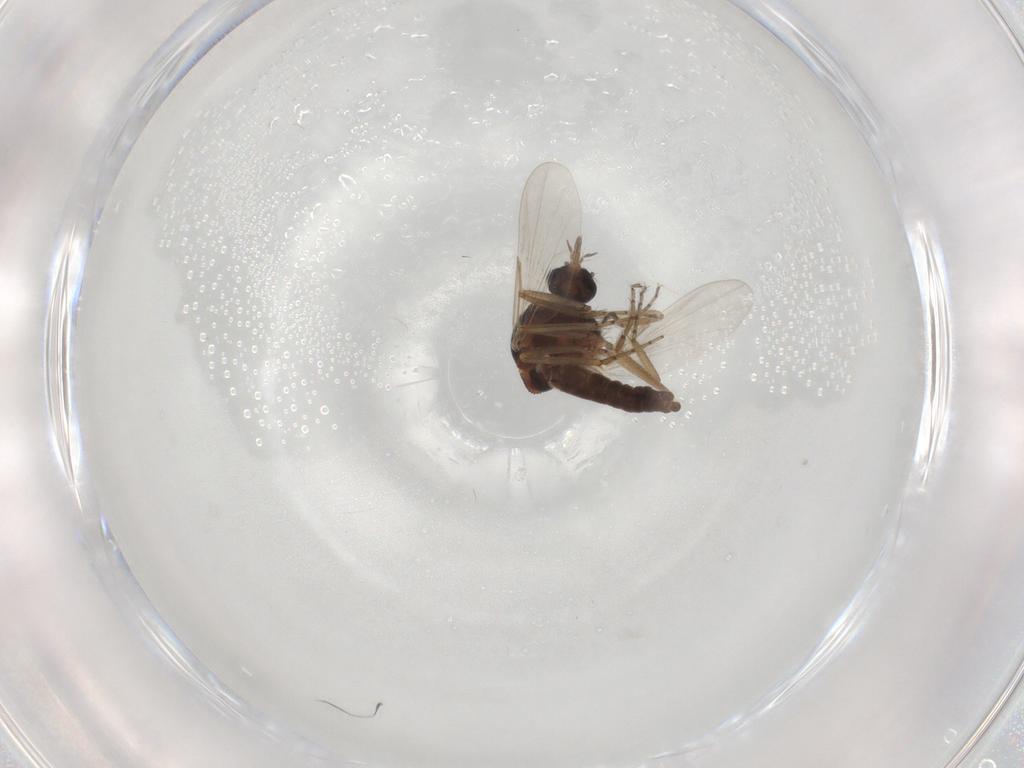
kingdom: Animalia
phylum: Arthropoda
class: Insecta
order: Diptera
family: Ceratopogonidae
